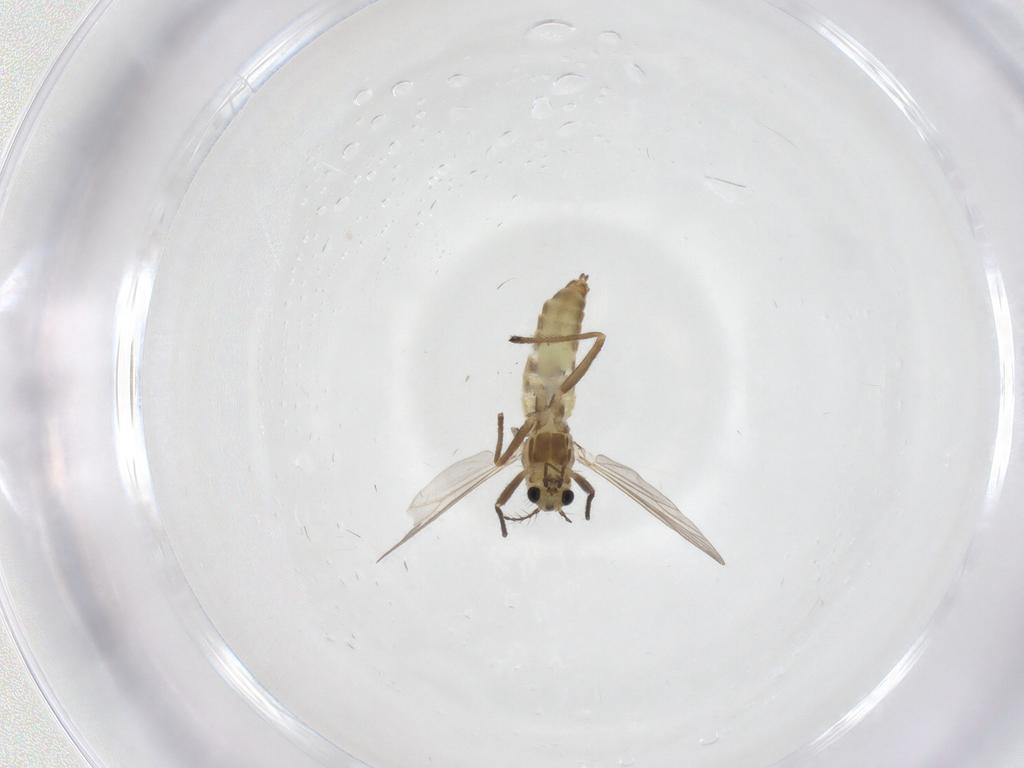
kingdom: Animalia
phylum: Arthropoda
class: Insecta
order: Diptera
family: Chironomidae
